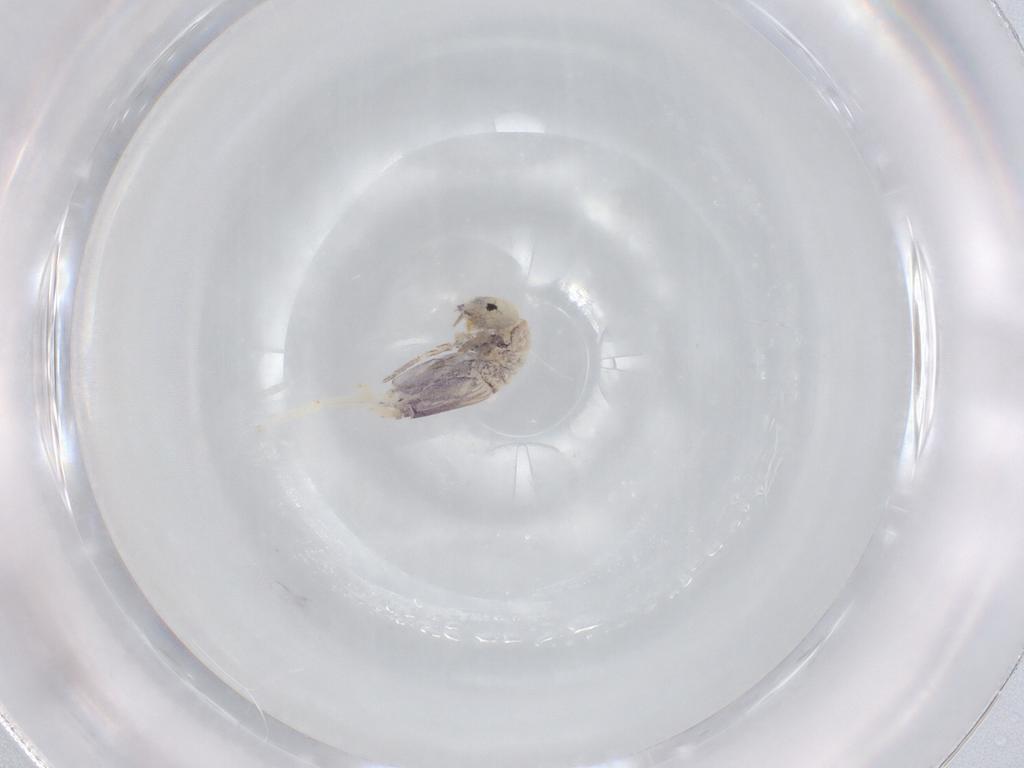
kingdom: Animalia
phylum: Arthropoda
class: Collembola
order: Entomobryomorpha
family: Entomobryidae
